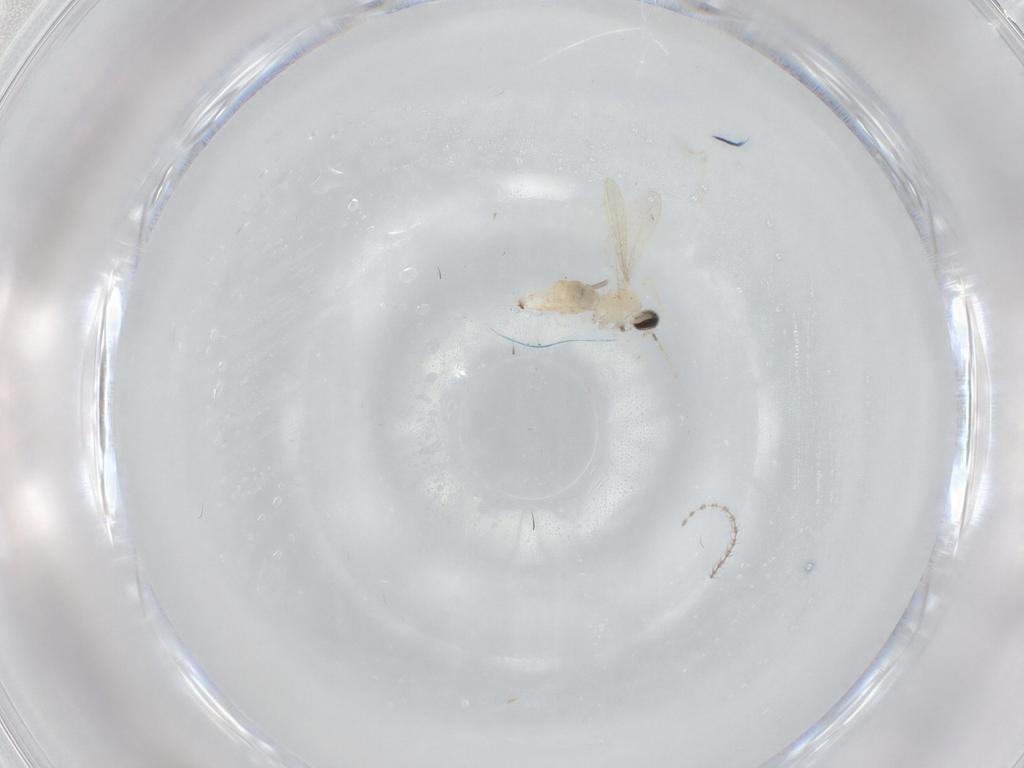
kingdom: Animalia
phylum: Arthropoda
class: Insecta
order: Diptera
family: Cecidomyiidae
